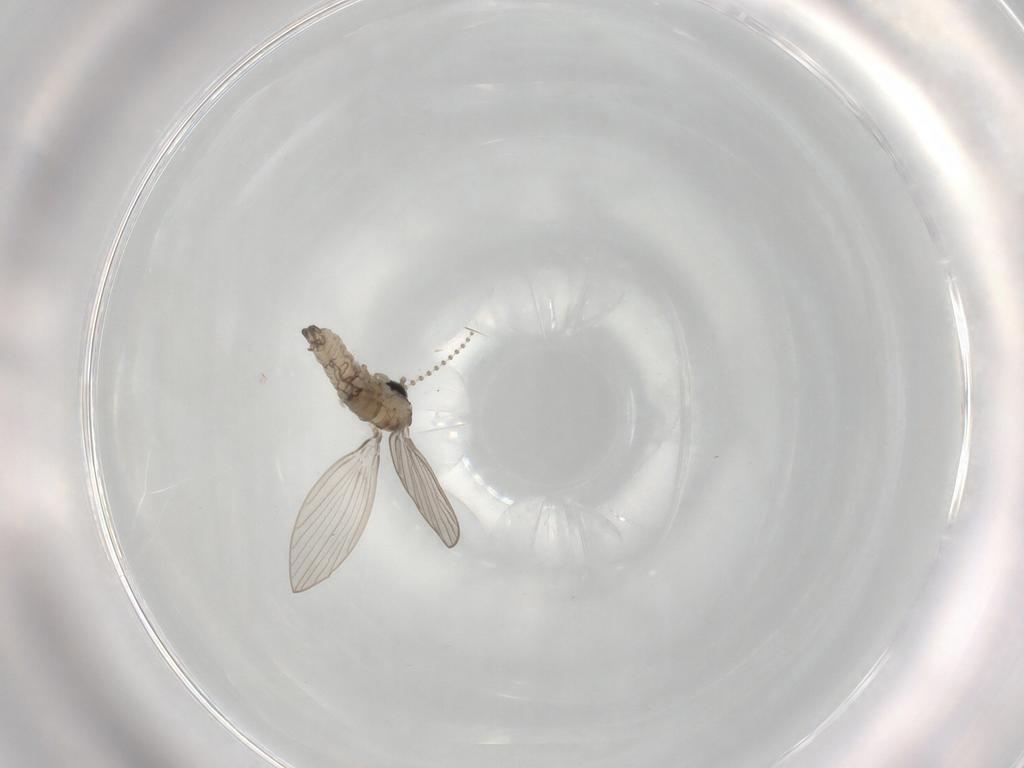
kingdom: Animalia
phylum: Arthropoda
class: Insecta
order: Diptera
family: Psychodidae
